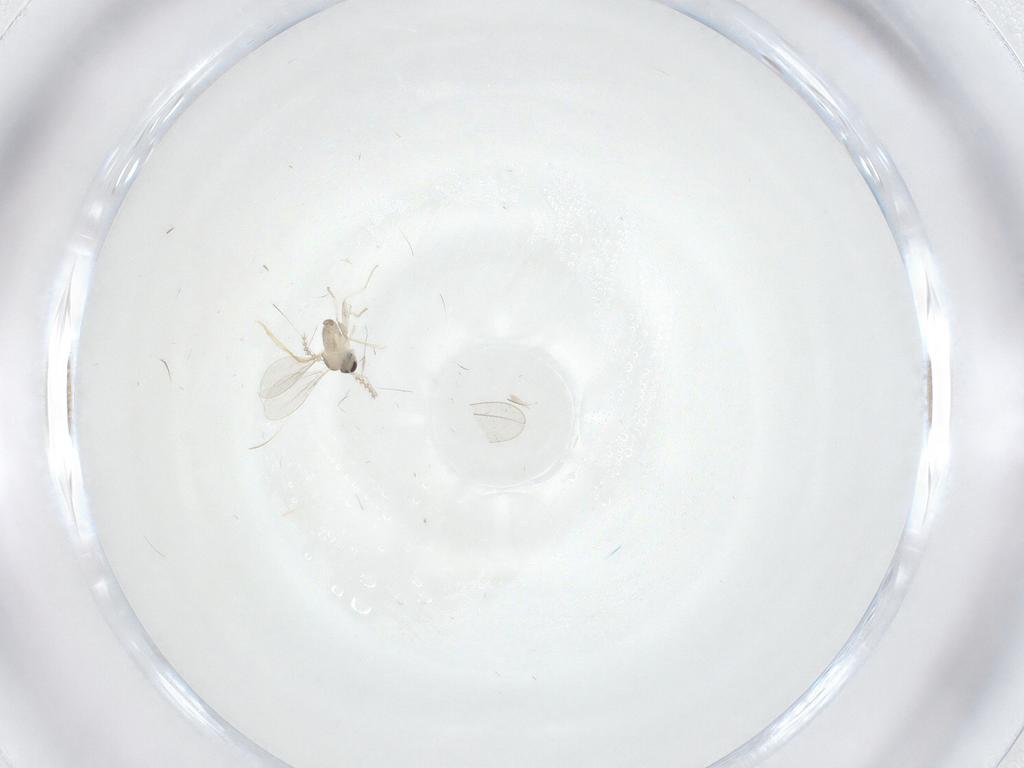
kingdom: Animalia
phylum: Arthropoda
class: Insecta
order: Diptera
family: Cecidomyiidae
